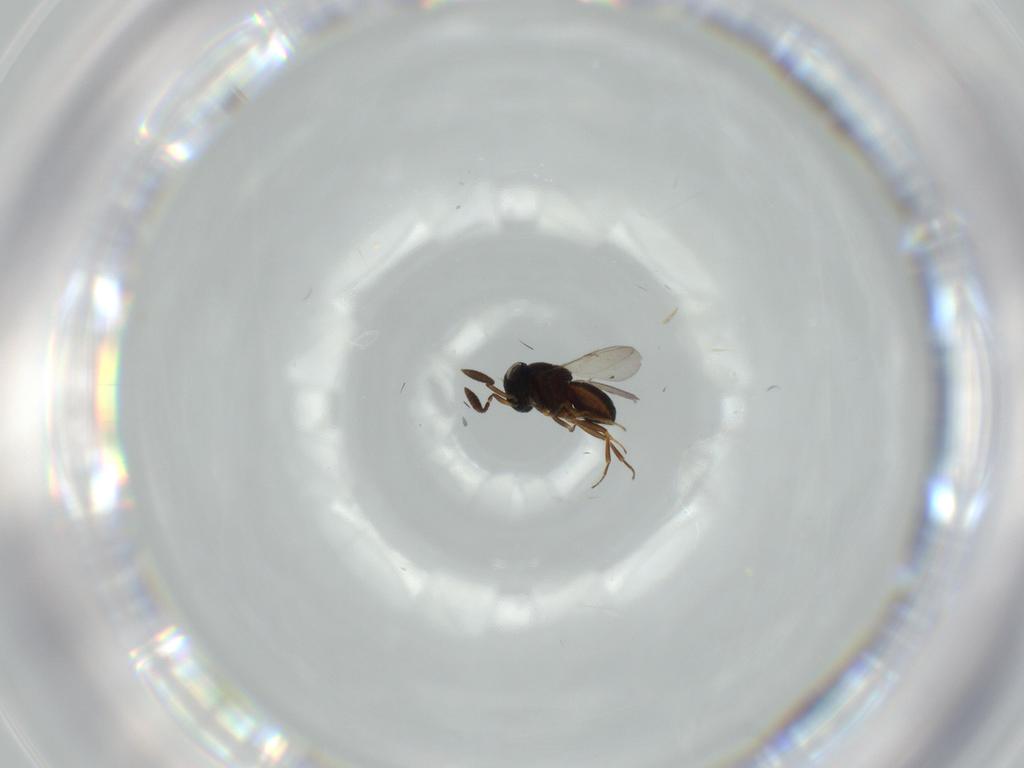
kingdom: Animalia
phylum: Arthropoda
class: Insecta
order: Hymenoptera
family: Scelionidae
